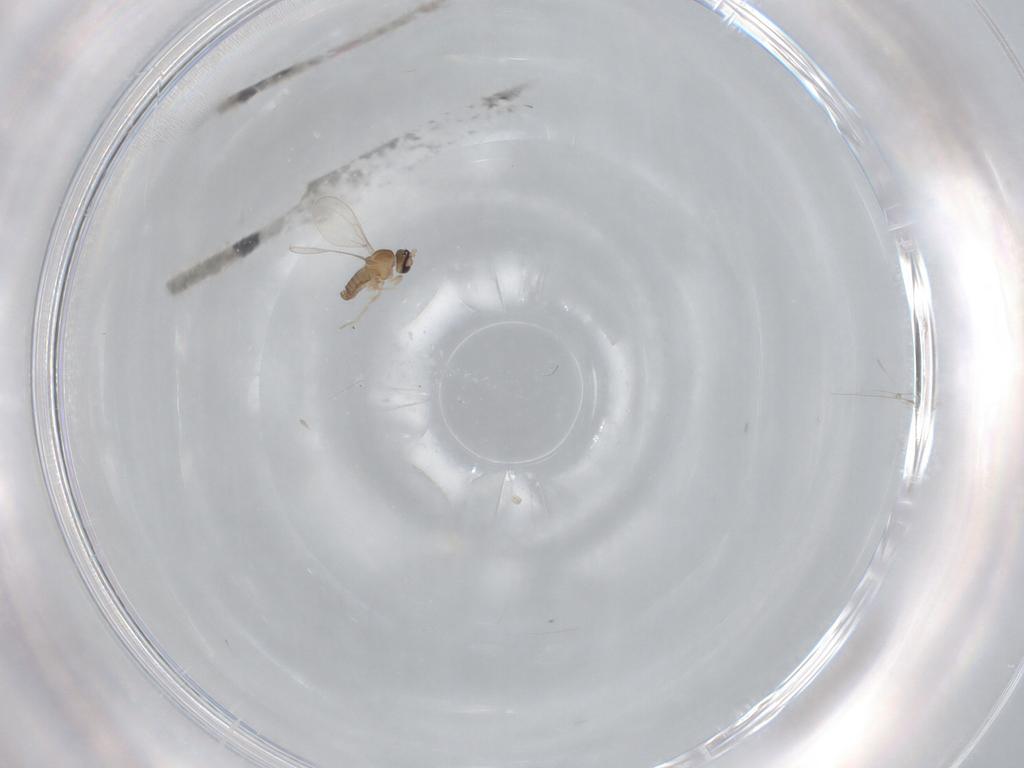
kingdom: Animalia
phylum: Arthropoda
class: Insecta
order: Diptera
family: Cecidomyiidae
